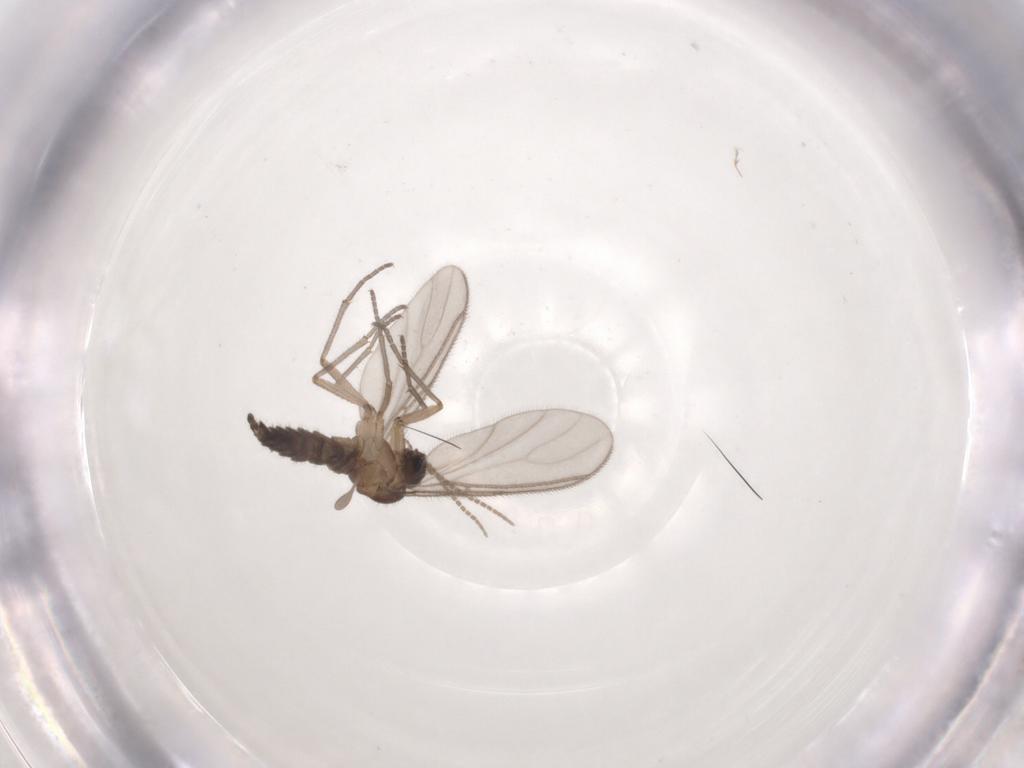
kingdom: Animalia
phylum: Arthropoda
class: Insecta
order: Diptera
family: Sciaridae
